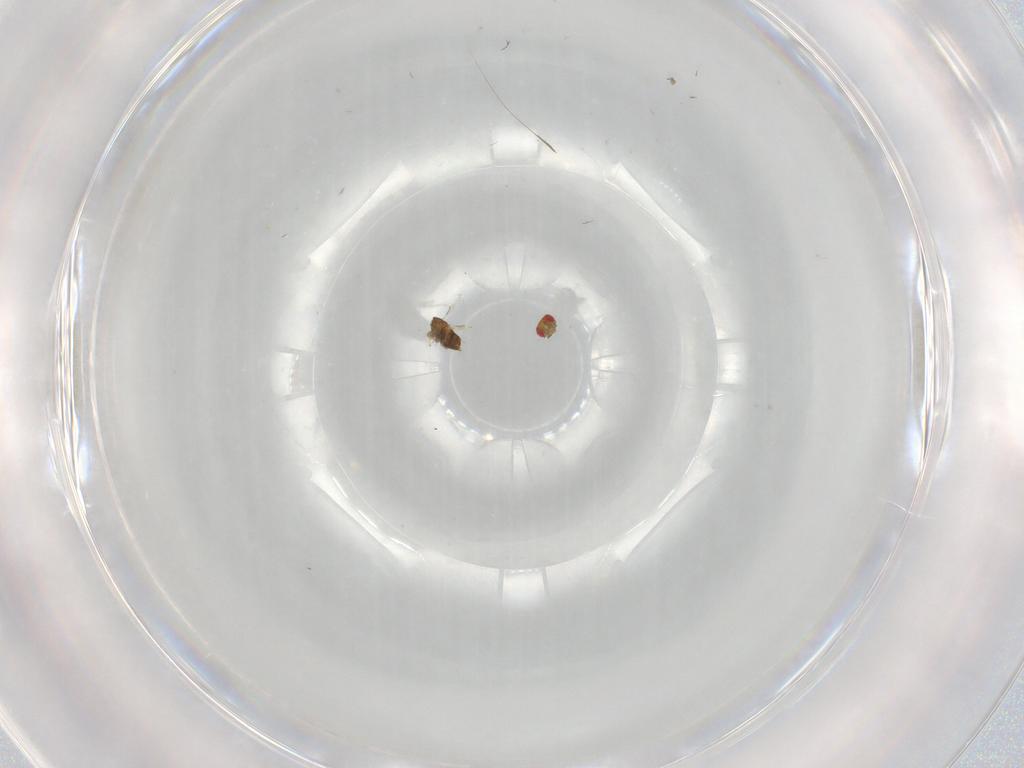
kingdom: Animalia
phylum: Arthropoda
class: Insecta
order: Hymenoptera
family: Trichogrammatidae
